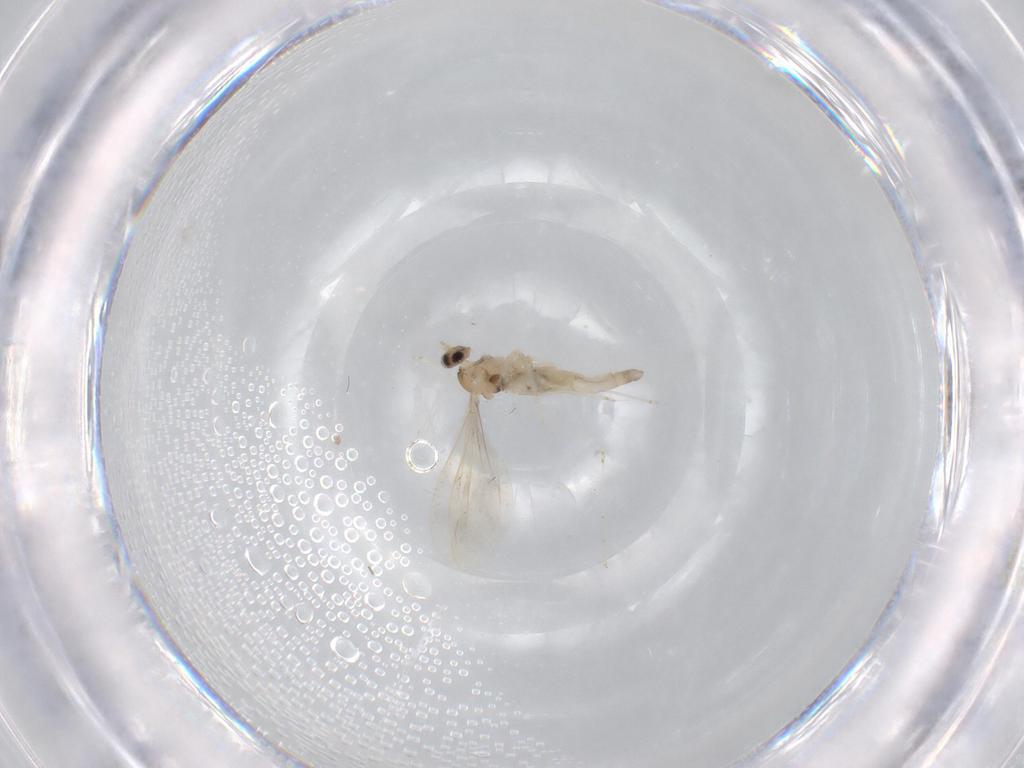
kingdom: Animalia
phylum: Arthropoda
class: Insecta
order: Diptera
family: Cecidomyiidae
